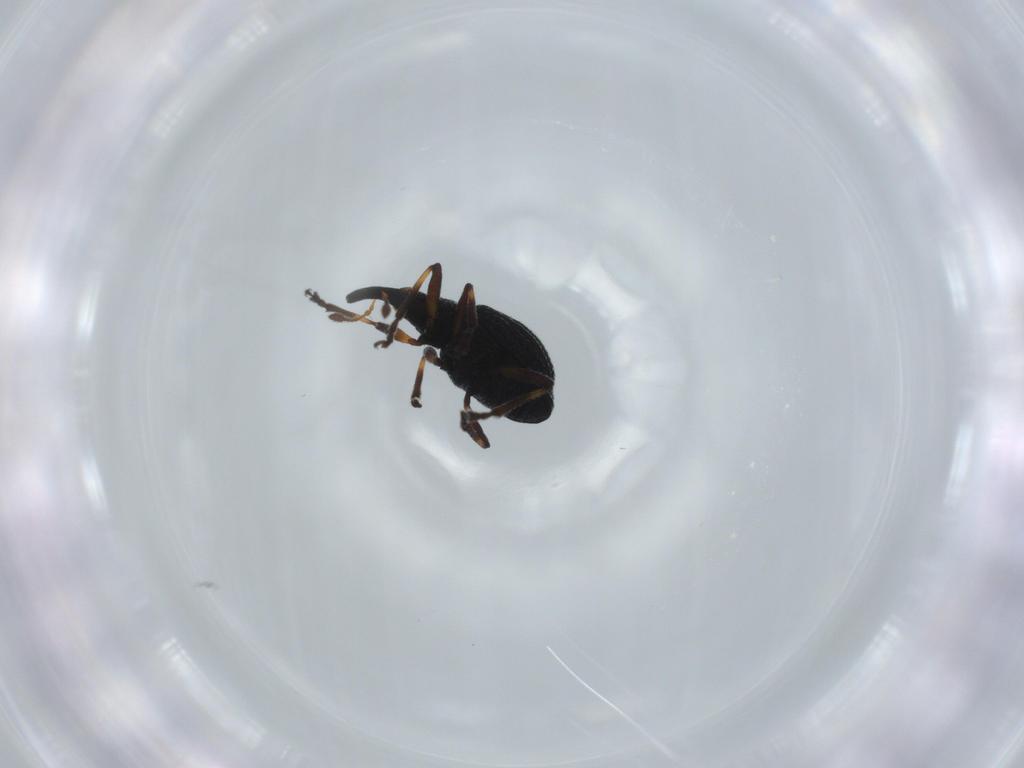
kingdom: Animalia
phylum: Arthropoda
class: Insecta
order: Coleoptera
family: Brentidae
